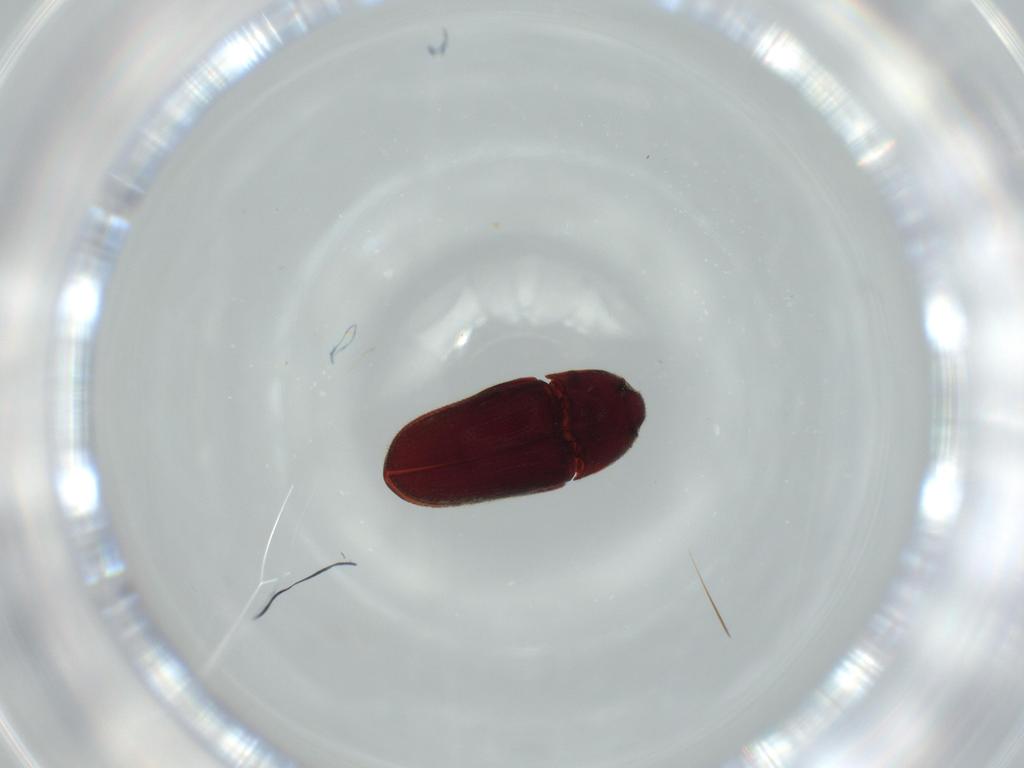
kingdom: Animalia
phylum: Arthropoda
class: Insecta
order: Coleoptera
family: Throscidae
